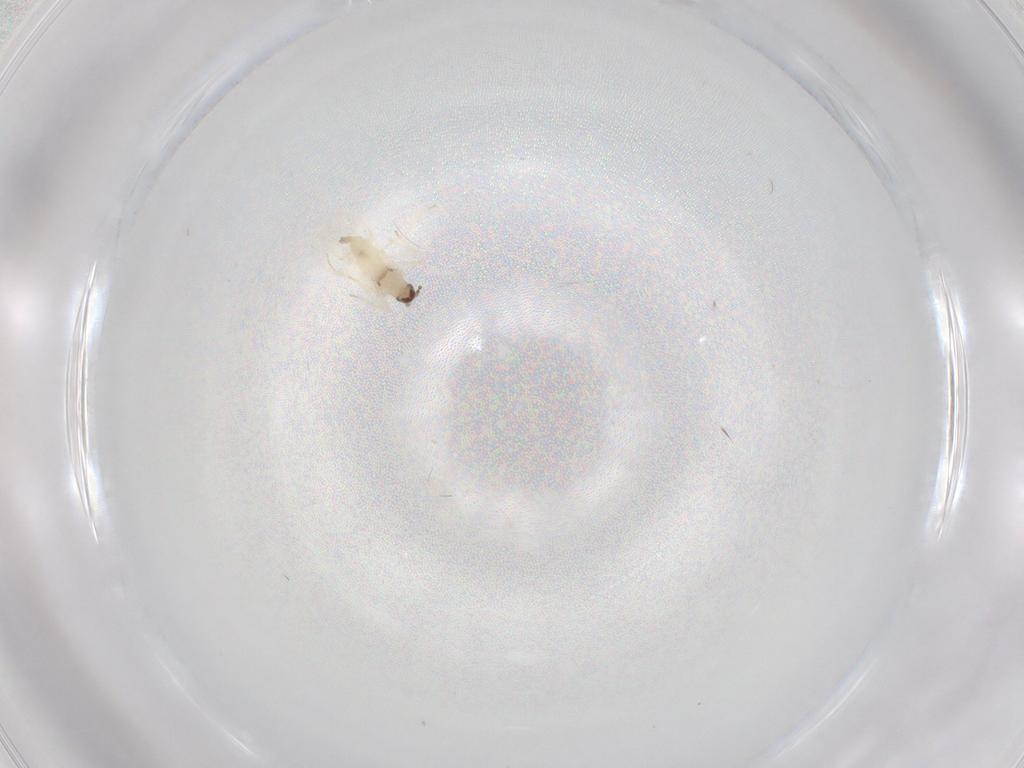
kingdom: Animalia
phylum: Arthropoda
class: Insecta
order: Diptera
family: Cecidomyiidae
